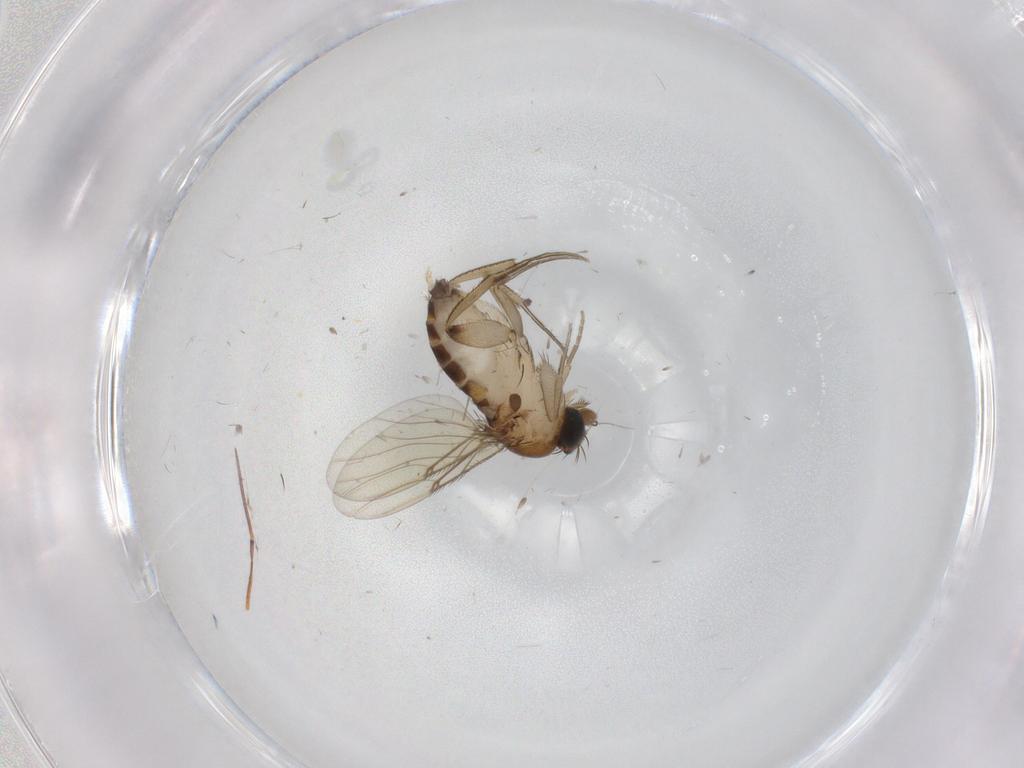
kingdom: Animalia
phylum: Arthropoda
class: Insecta
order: Diptera
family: Phoridae
